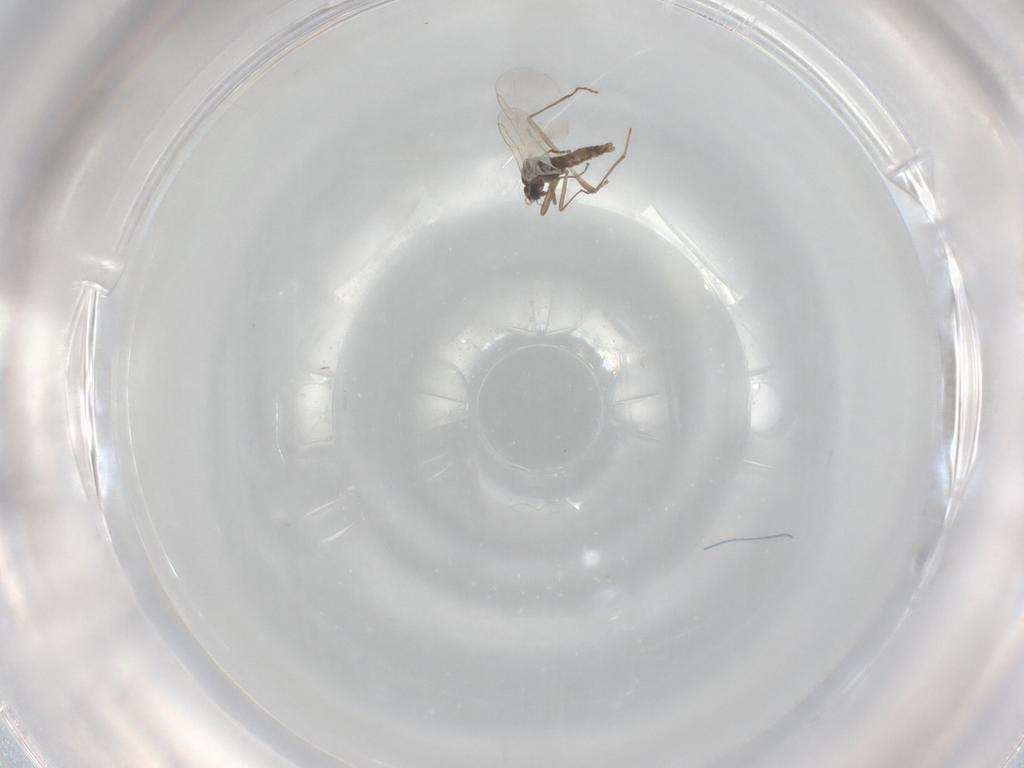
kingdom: Animalia
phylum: Arthropoda
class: Insecta
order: Diptera
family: Cecidomyiidae
